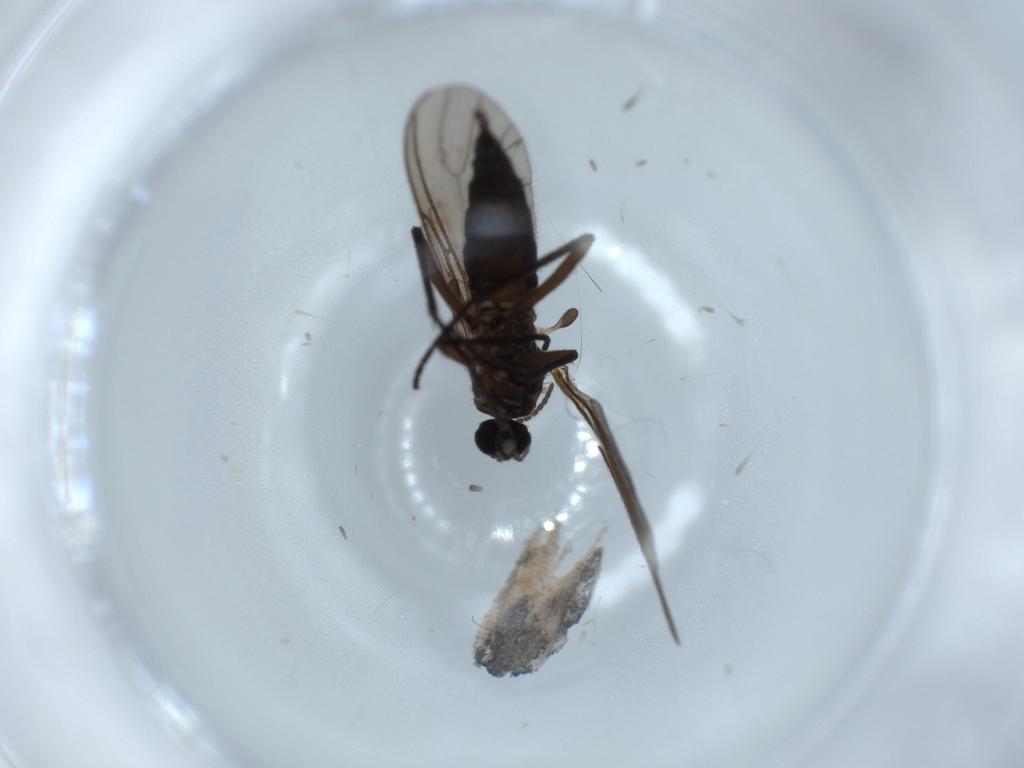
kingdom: Animalia
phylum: Arthropoda
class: Insecta
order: Diptera
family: Sciaridae
